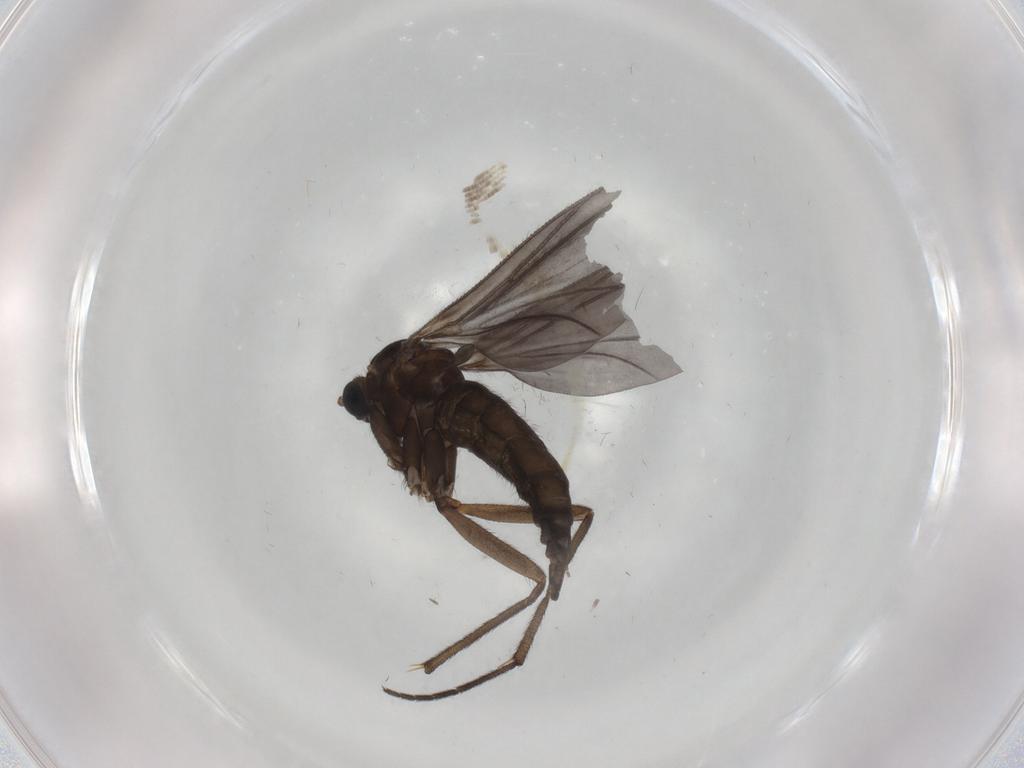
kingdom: Animalia
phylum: Arthropoda
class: Insecta
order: Diptera
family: Sciaridae
